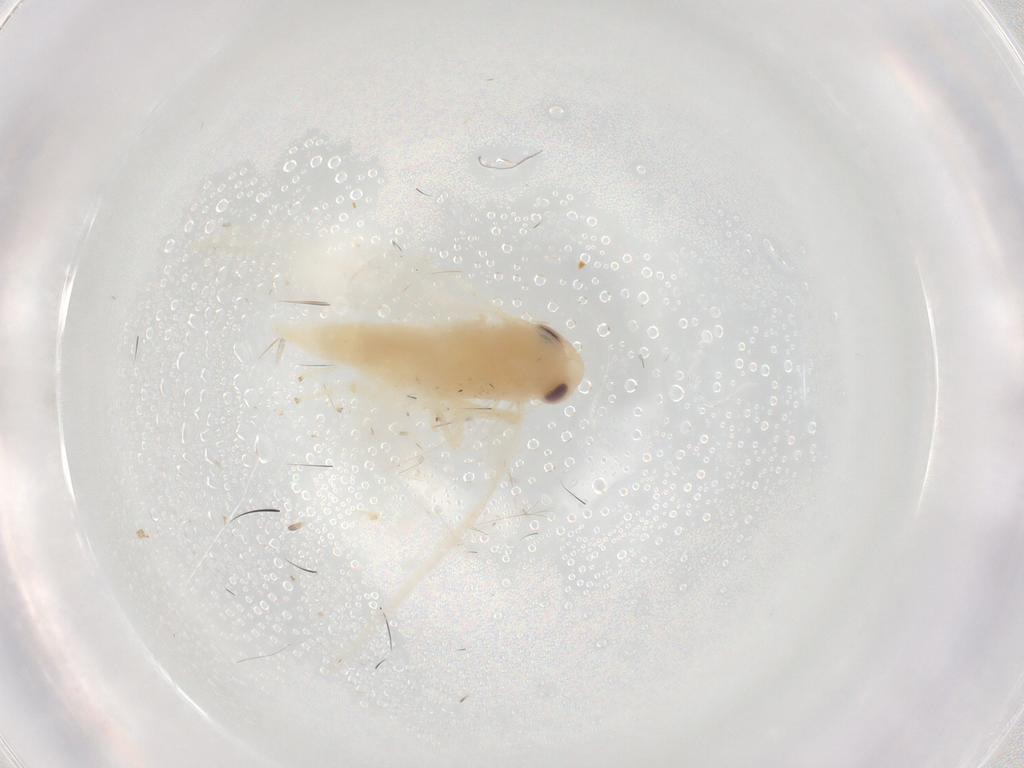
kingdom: Animalia
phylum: Arthropoda
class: Insecta
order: Hemiptera
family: Cicadellidae
